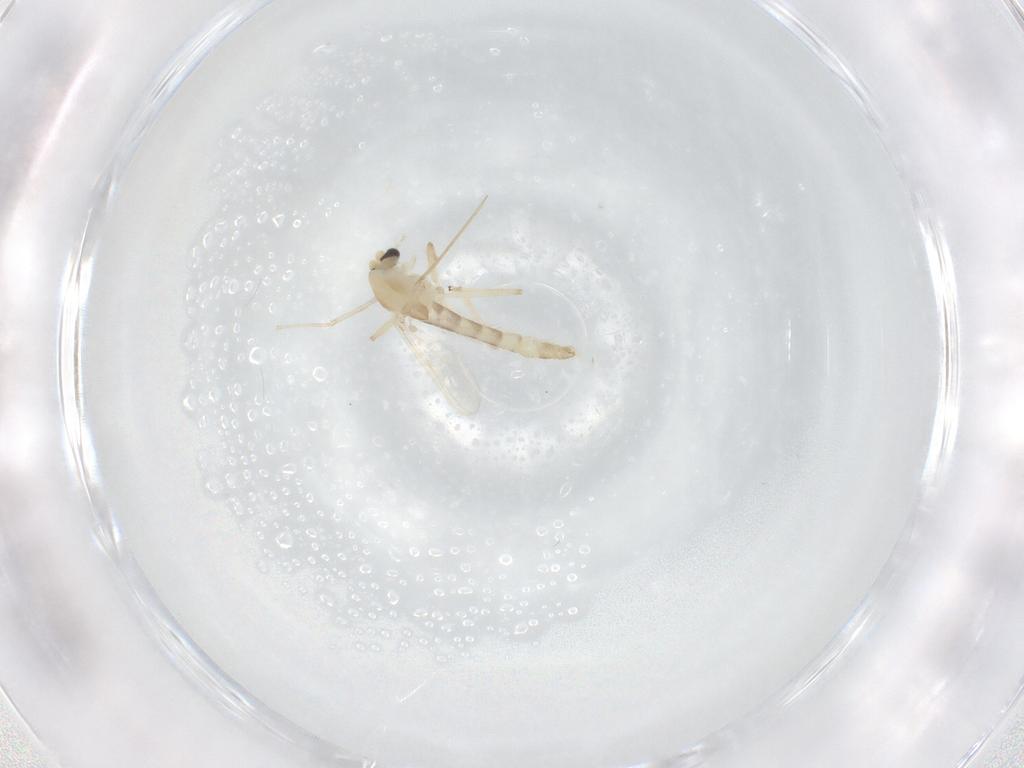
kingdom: Animalia
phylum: Arthropoda
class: Insecta
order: Diptera
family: Chironomidae
